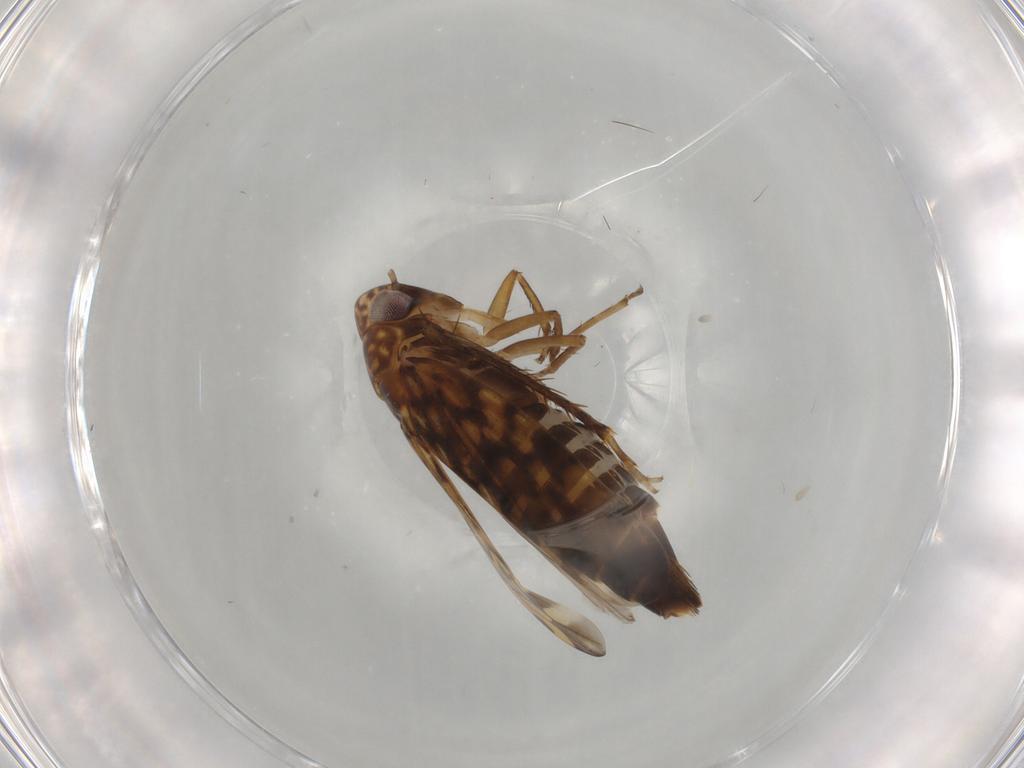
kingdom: Animalia
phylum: Arthropoda
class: Insecta
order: Hemiptera
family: Cicadellidae
